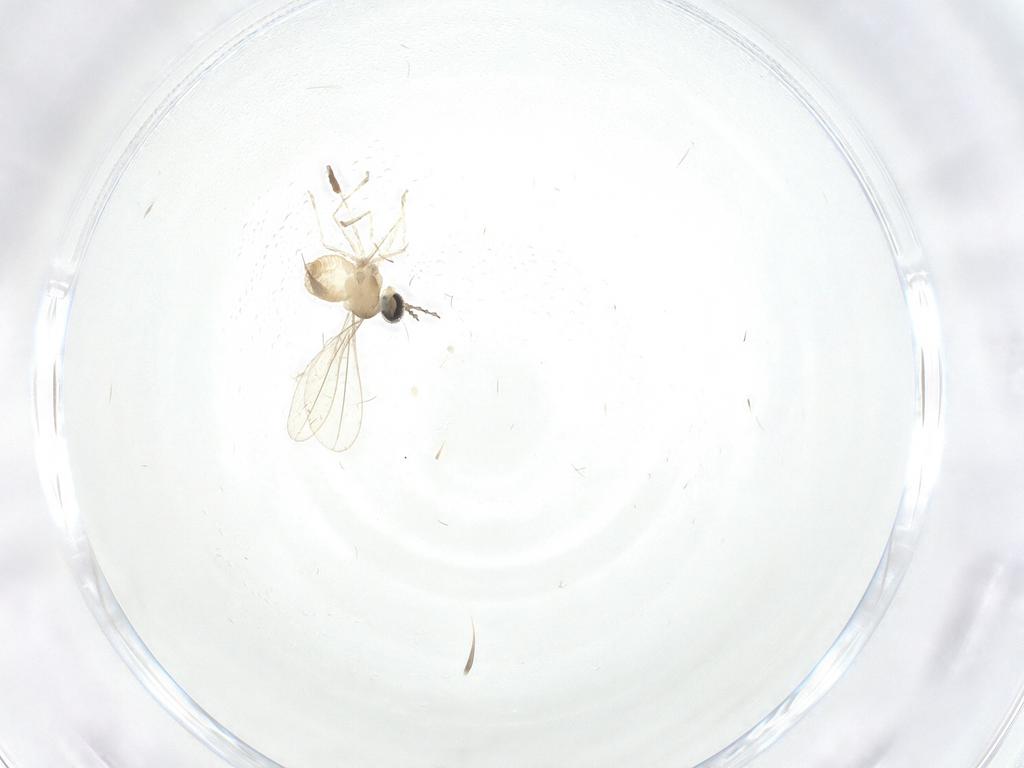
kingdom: Animalia
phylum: Arthropoda
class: Insecta
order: Diptera
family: Cecidomyiidae
